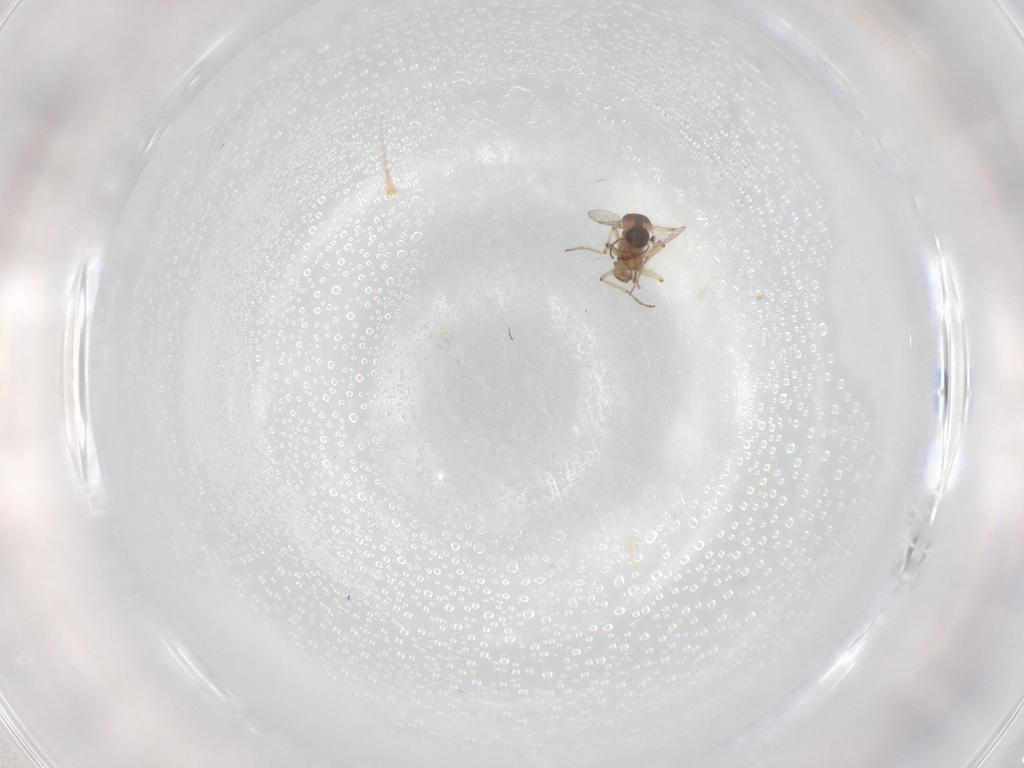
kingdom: Animalia
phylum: Arthropoda
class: Insecta
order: Diptera
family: Ceratopogonidae
